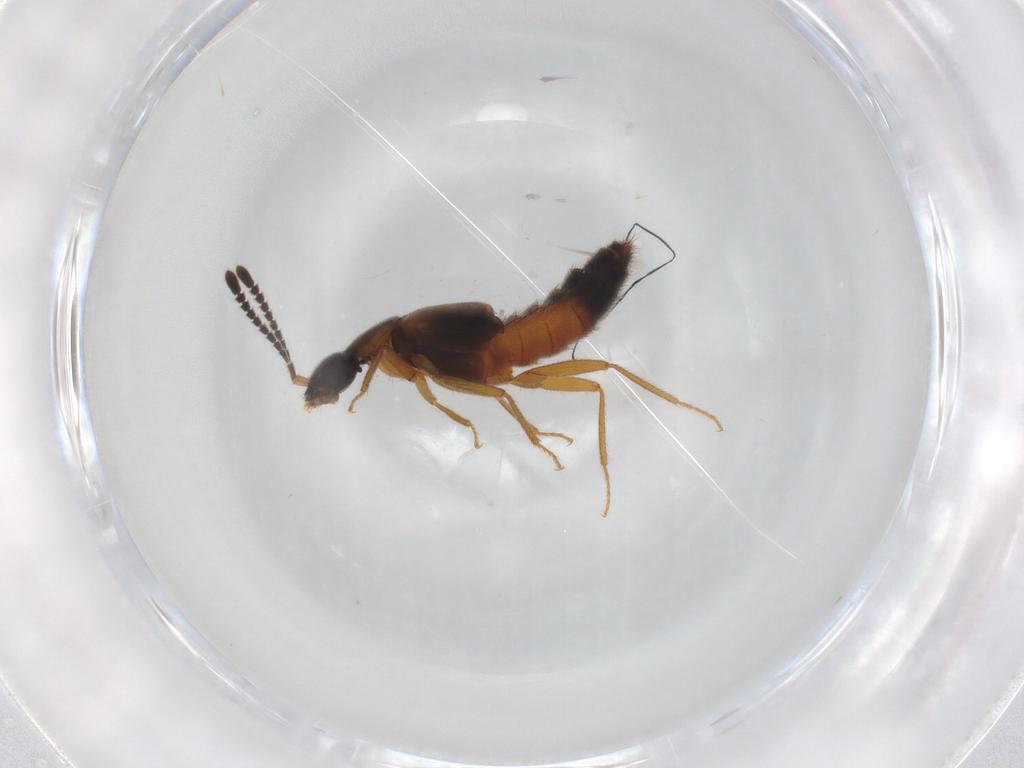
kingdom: Animalia
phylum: Arthropoda
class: Insecta
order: Coleoptera
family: Staphylinidae
